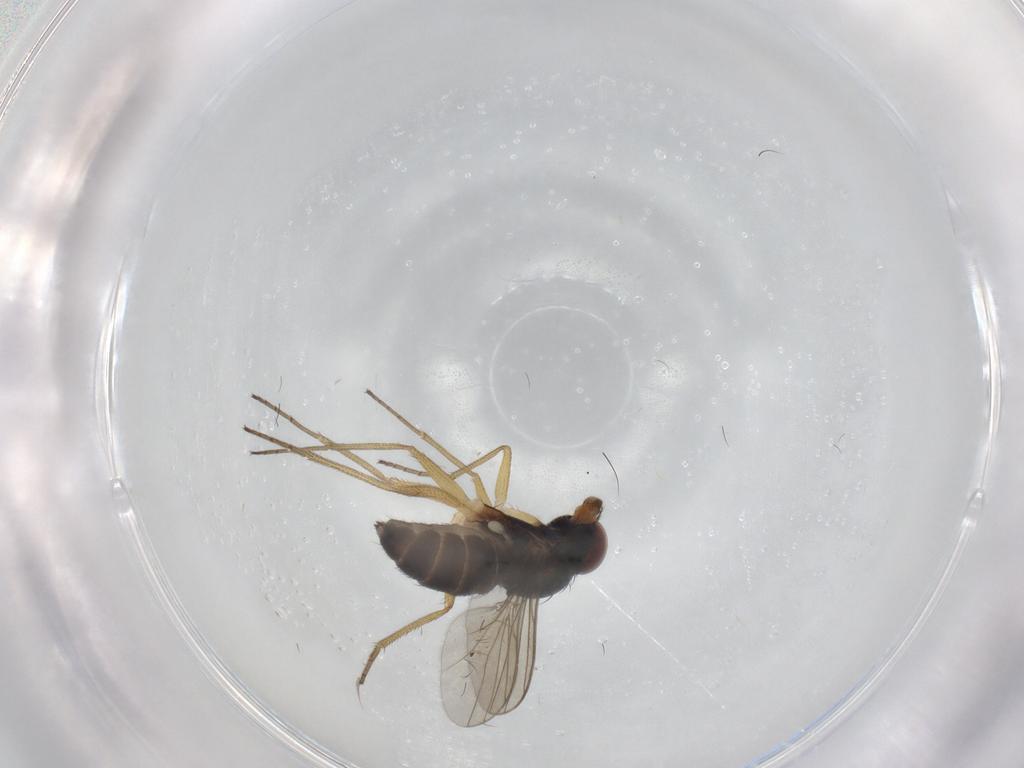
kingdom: Animalia
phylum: Arthropoda
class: Insecta
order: Diptera
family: Dolichopodidae
